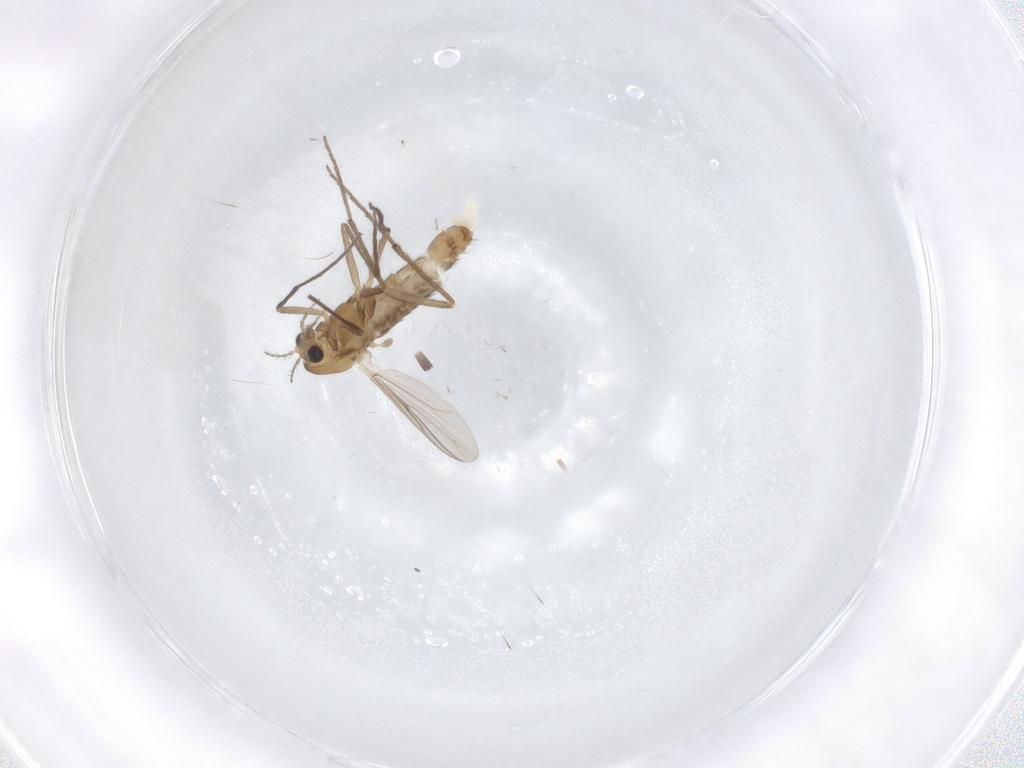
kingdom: Animalia
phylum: Arthropoda
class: Insecta
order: Diptera
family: Chironomidae
